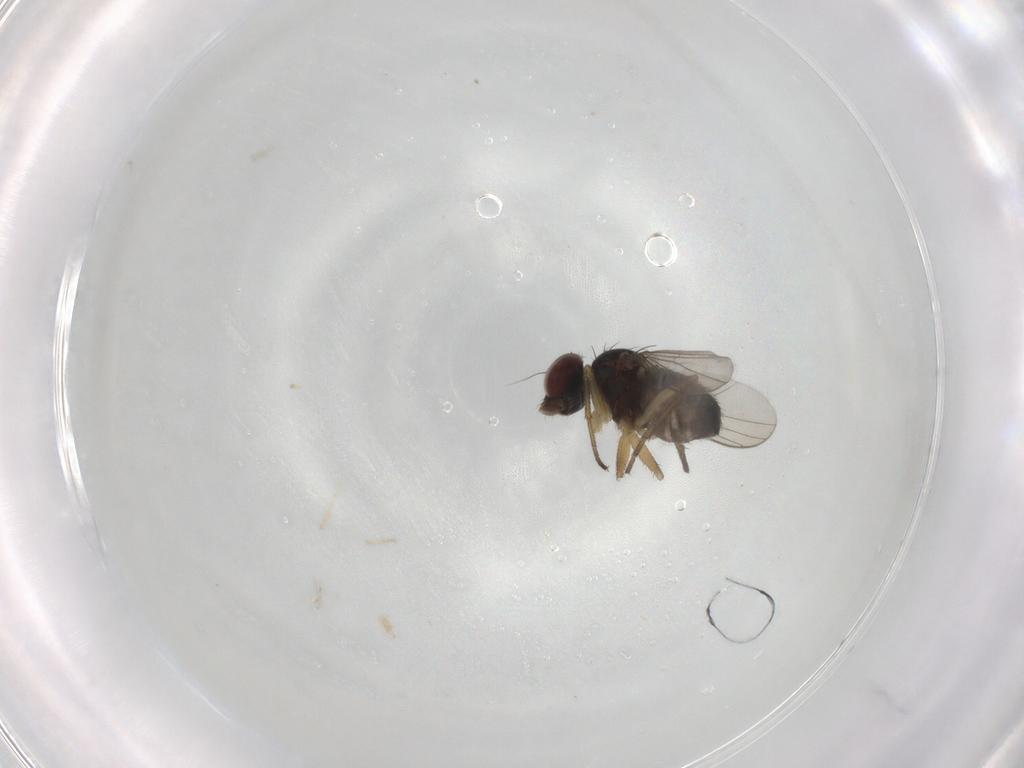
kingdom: Animalia
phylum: Arthropoda
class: Insecta
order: Diptera
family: Dolichopodidae
